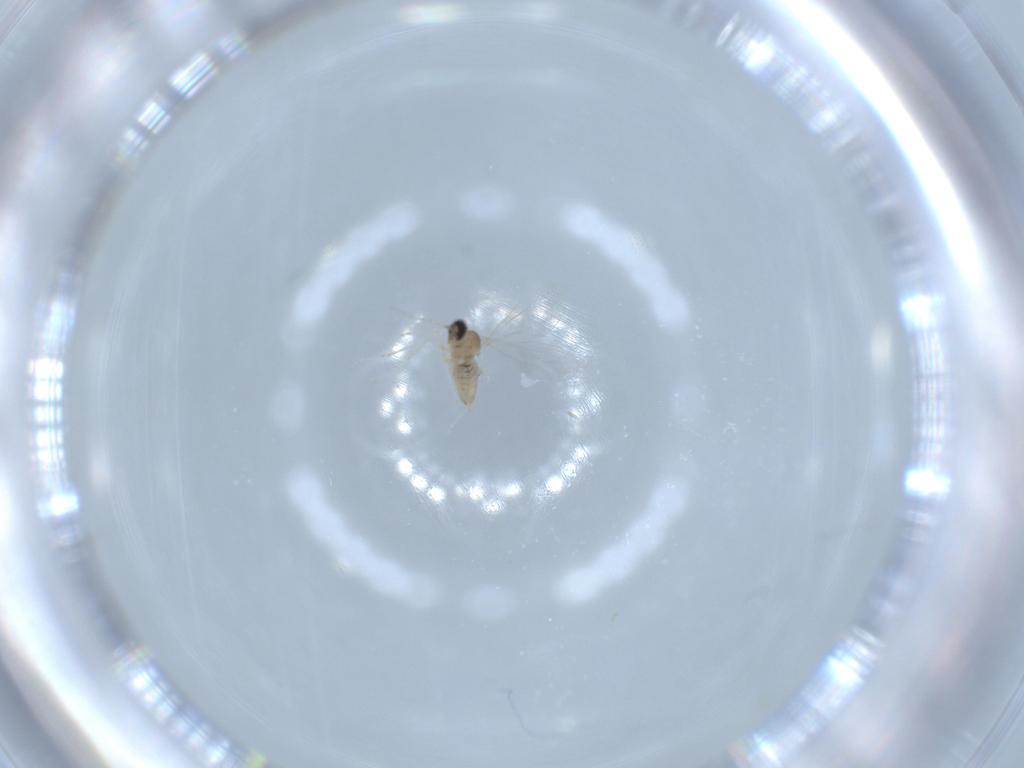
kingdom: Animalia
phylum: Arthropoda
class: Insecta
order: Diptera
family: Cecidomyiidae
